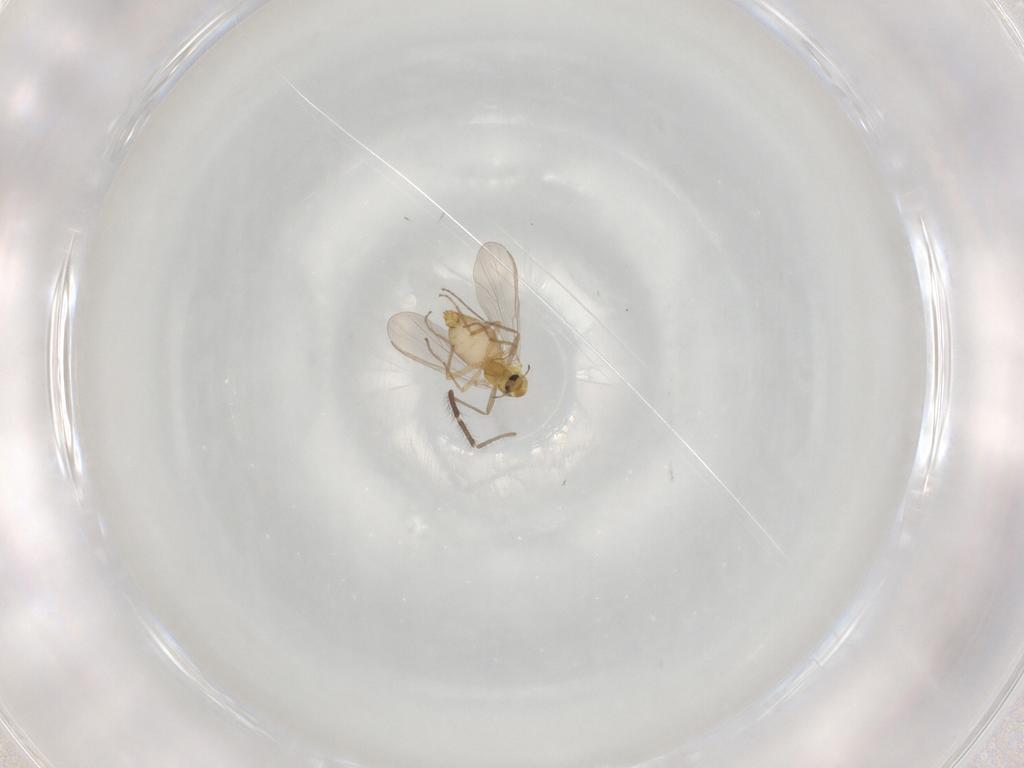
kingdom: Animalia
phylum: Arthropoda
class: Insecta
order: Diptera
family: Chironomidae
